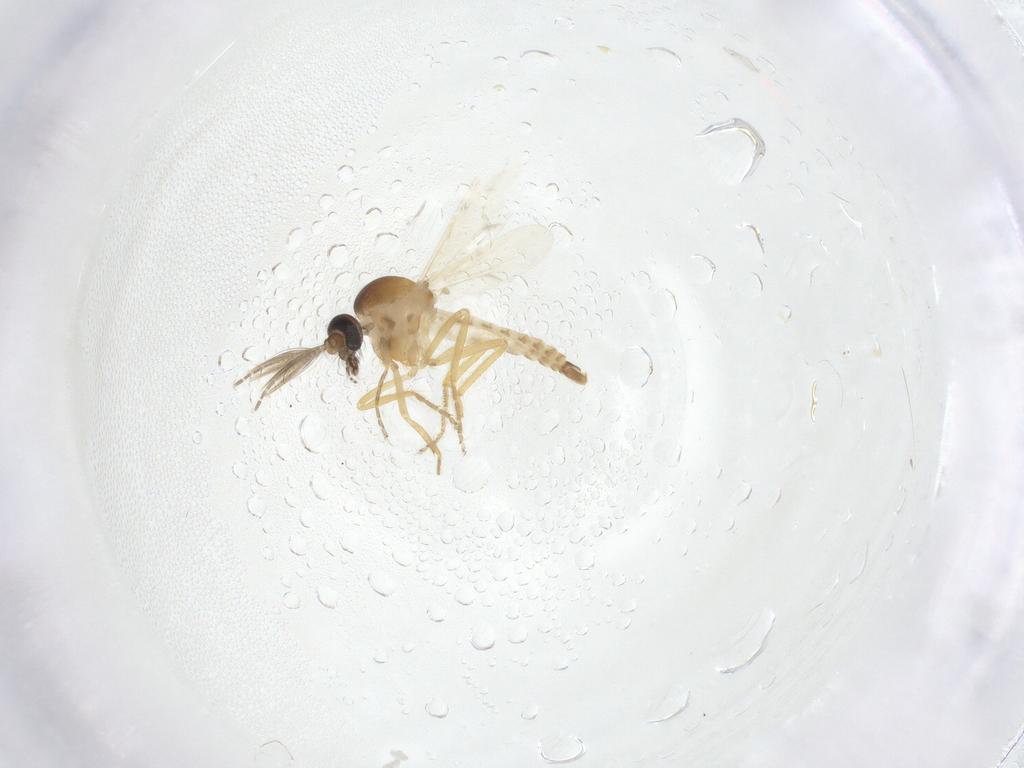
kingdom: Animalia
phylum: Arthropoda
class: Insecta
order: Diptera
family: Ceratopogonidae
